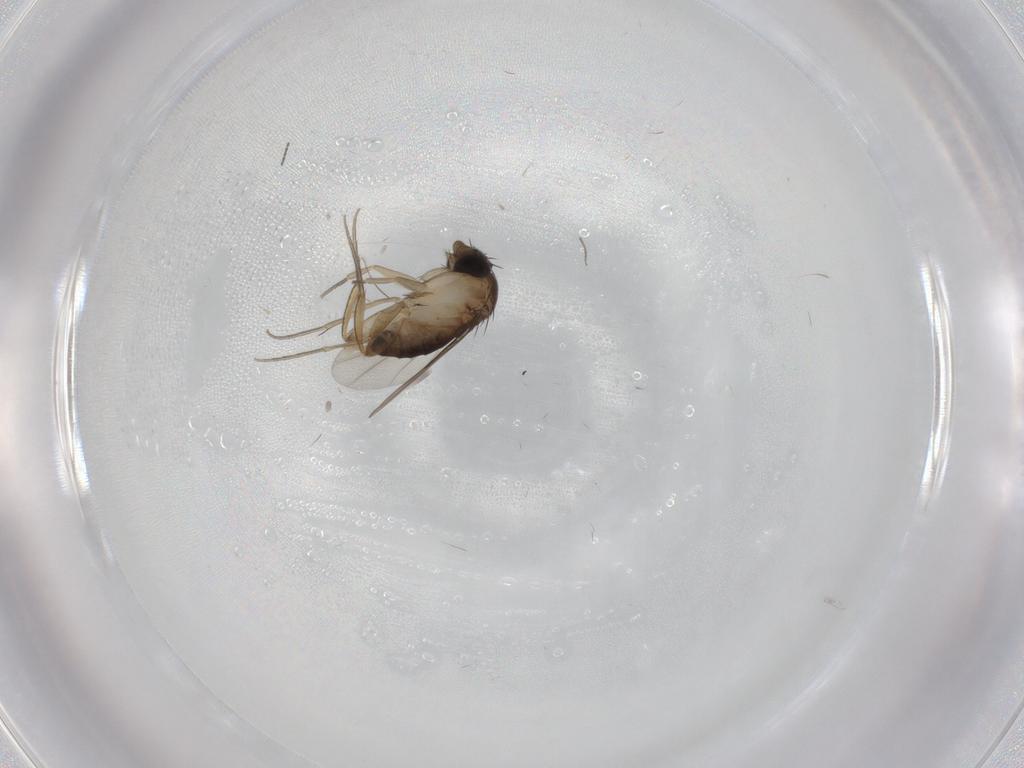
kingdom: Animalia
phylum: Arthropoda
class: Insecta
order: Diptera
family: Phoridae
